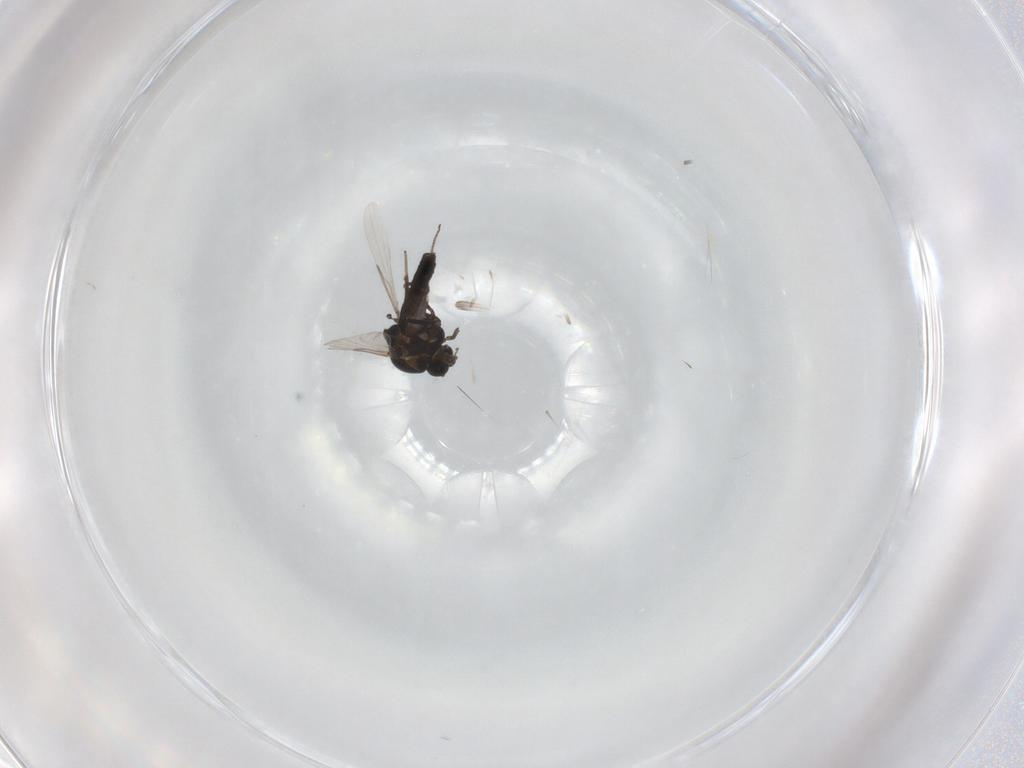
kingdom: Animalia
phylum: Arthropoda
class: Insecta
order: Diptera
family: Ceratopogonidae
